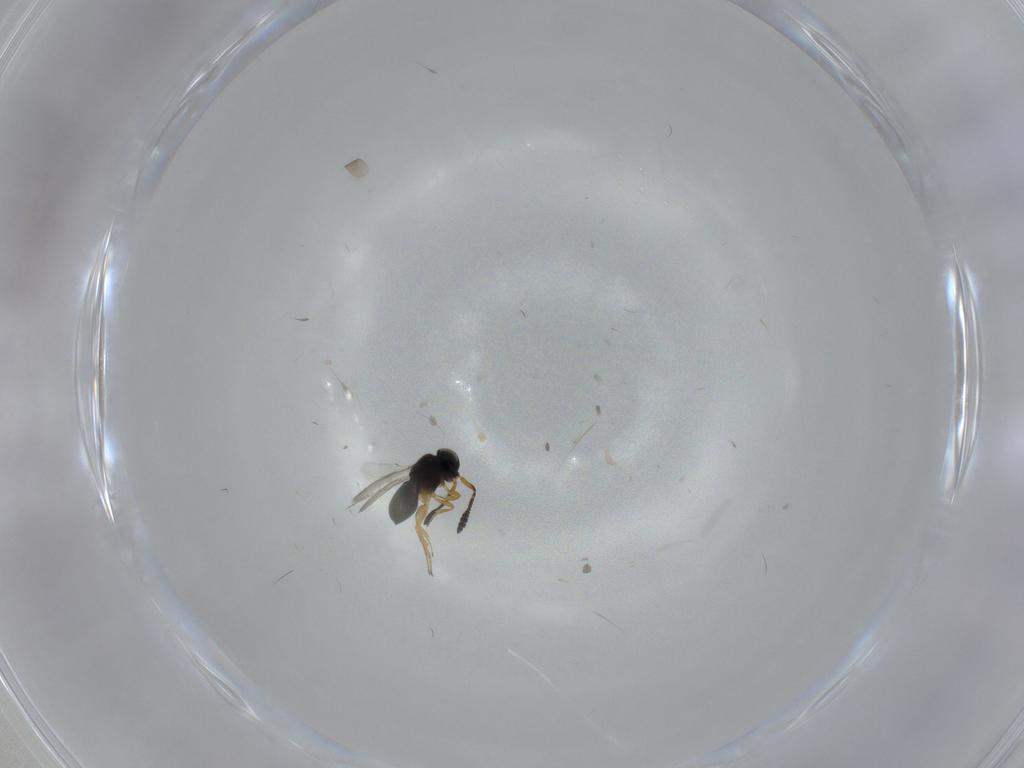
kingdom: Animalia
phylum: Arthropoda
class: Insecta
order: Hymenoptera
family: Scelionidae
